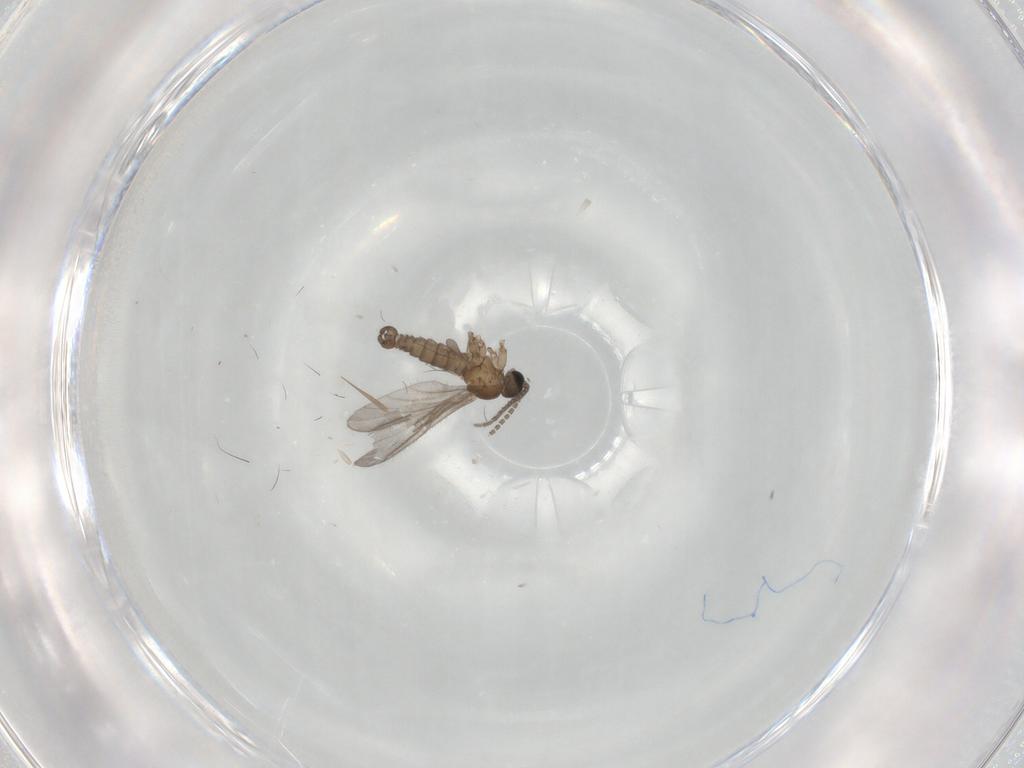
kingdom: Animalia
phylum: Arthropoda
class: Insecta
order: Diptera
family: Sciaridae
